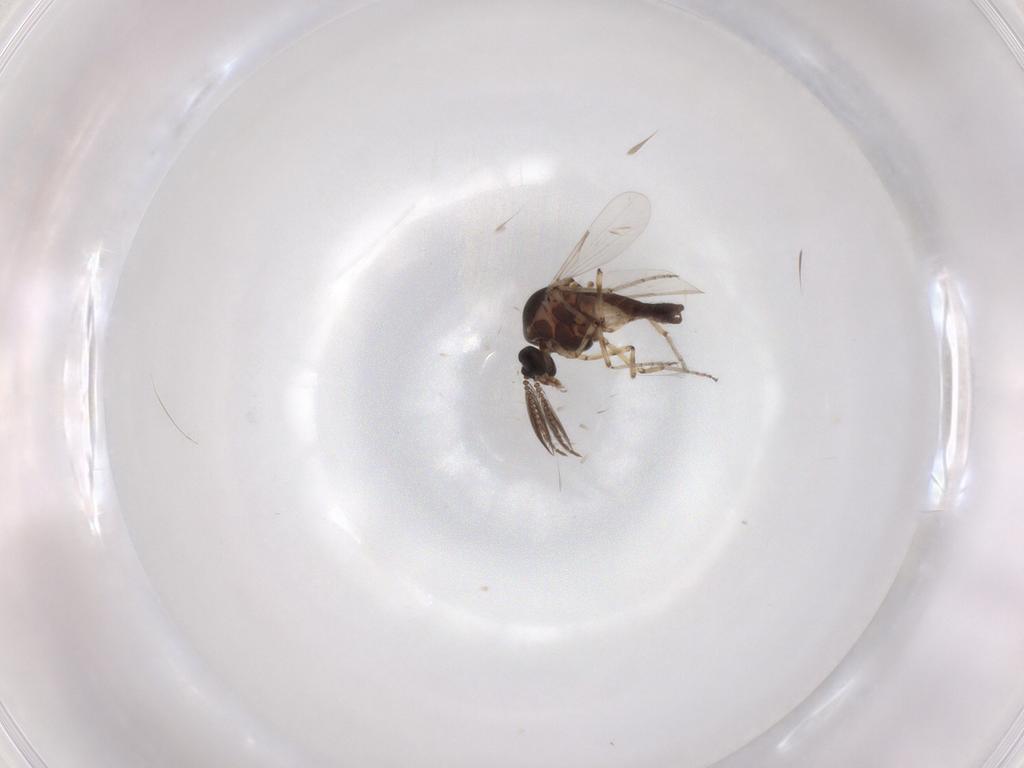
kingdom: Animalia
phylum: Arthropoda
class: Insecta
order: Diptera
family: Ceratopogonidae
